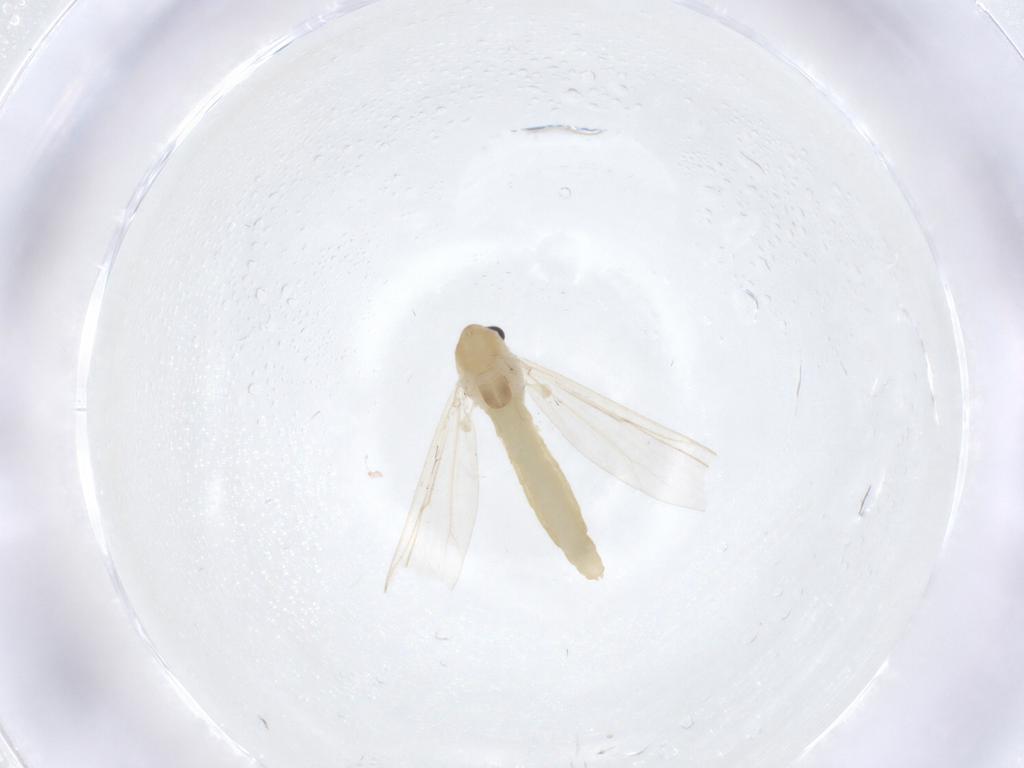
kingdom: Animalia
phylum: Arthropoda
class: Insecta
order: Diptera
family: Chironomidae
